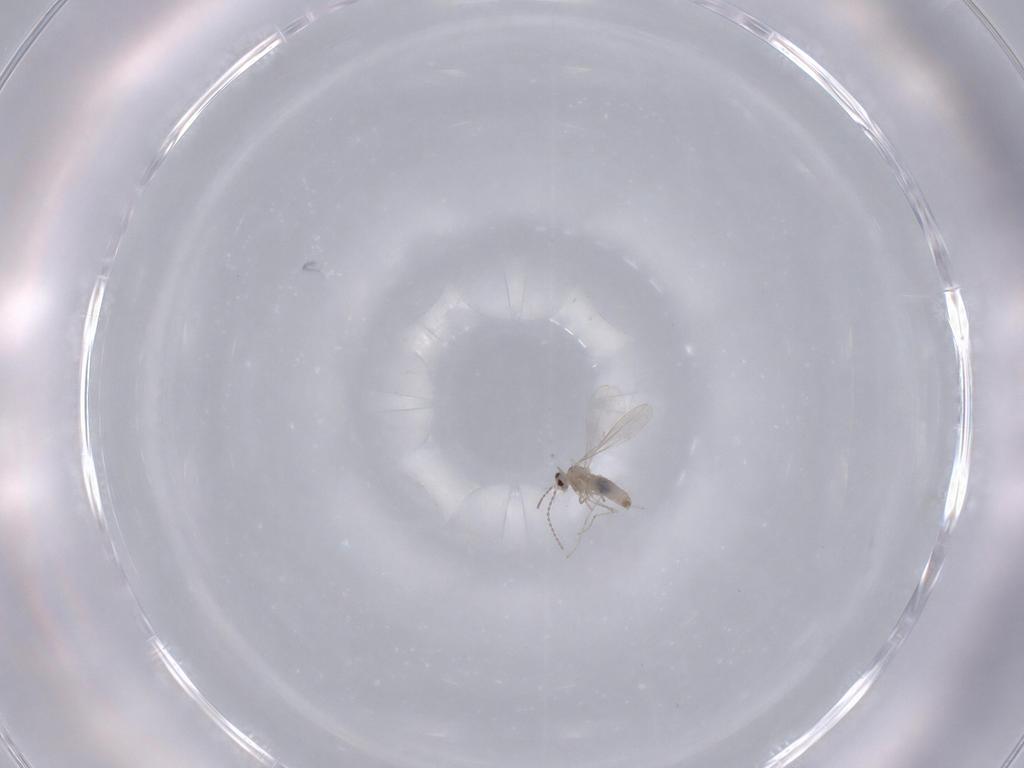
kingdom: Animalia
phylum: Arthropoda
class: Insecta
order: Diptera
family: Cecidomyiidae
